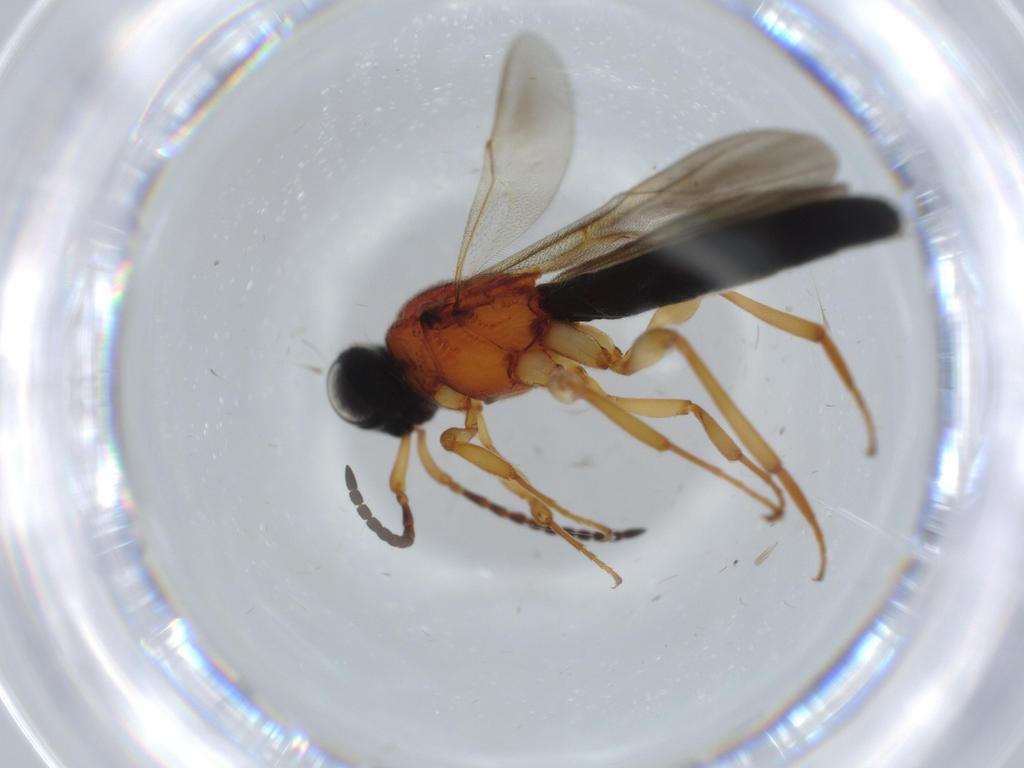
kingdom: Animalia
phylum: Arthropoda
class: Insecta
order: Hymenoptera
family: Scelionidae
